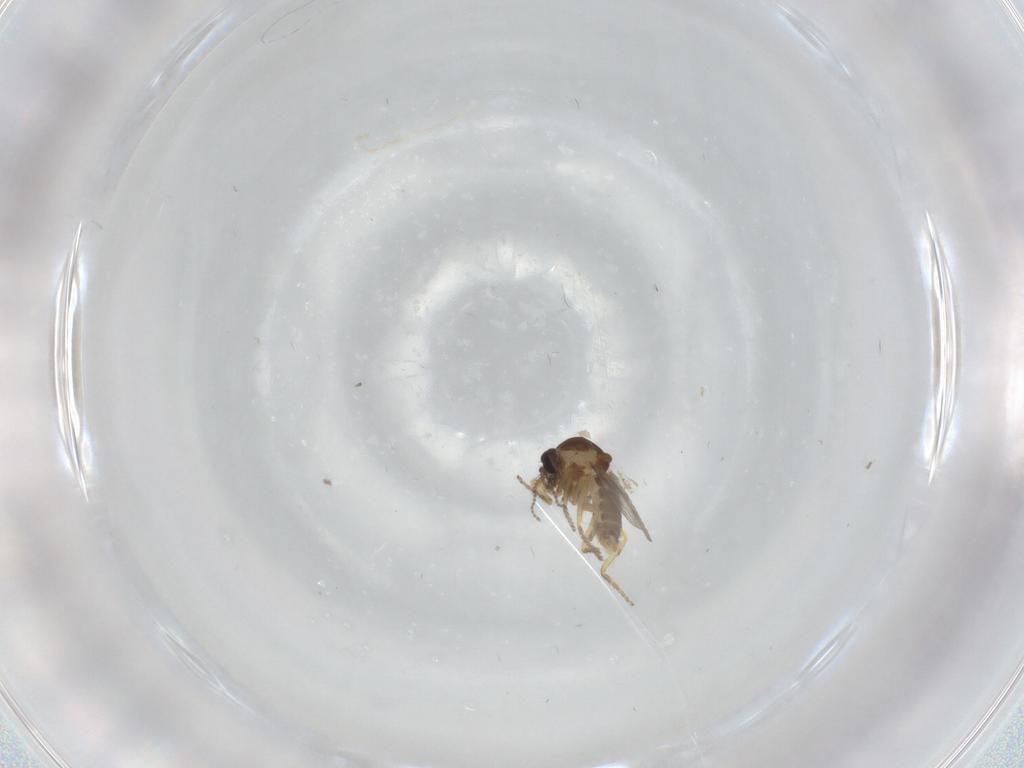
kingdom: Animalia
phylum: Arthropoda
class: Insecta
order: Diptera
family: Ceratopogonidae
